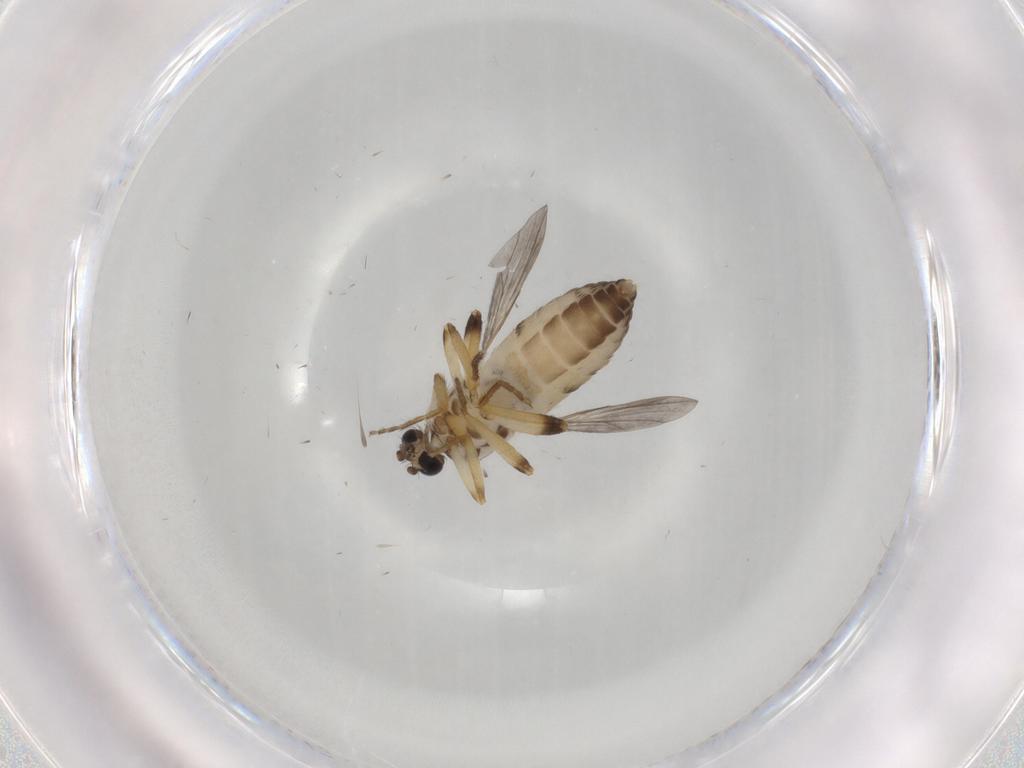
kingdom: Animalia
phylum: Arthropoda
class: Insecta
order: Diptera
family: Ceratopogonidae
